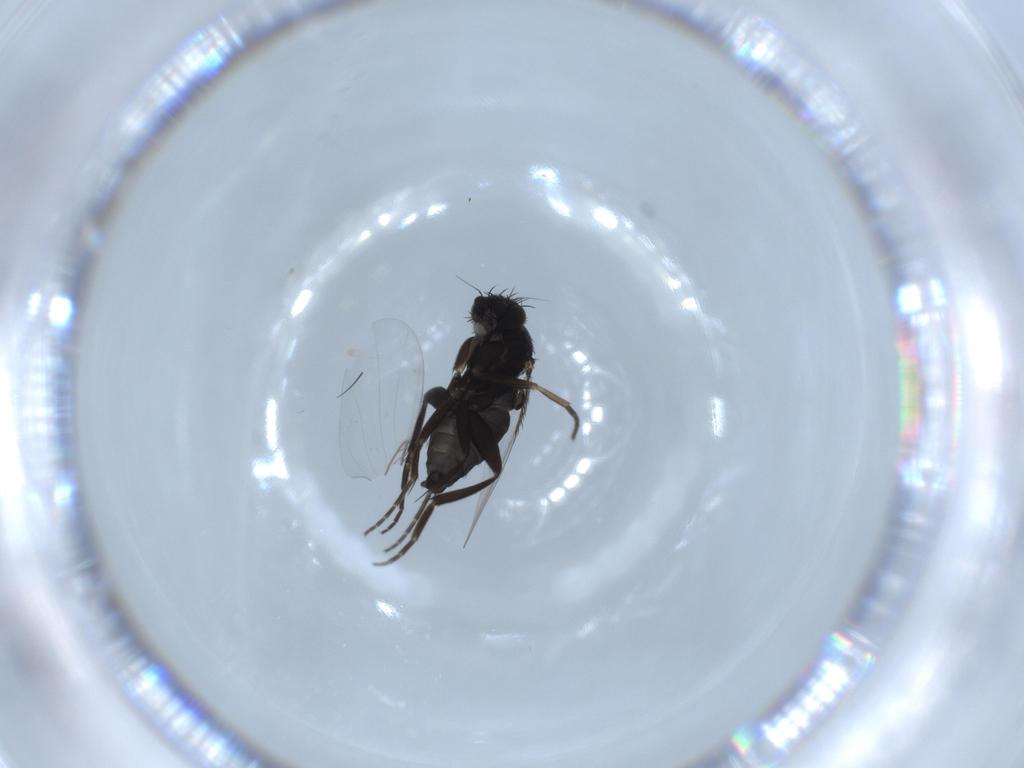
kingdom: Animalia
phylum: Arthropoda
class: Insecta
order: Diptera
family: Phoridae
